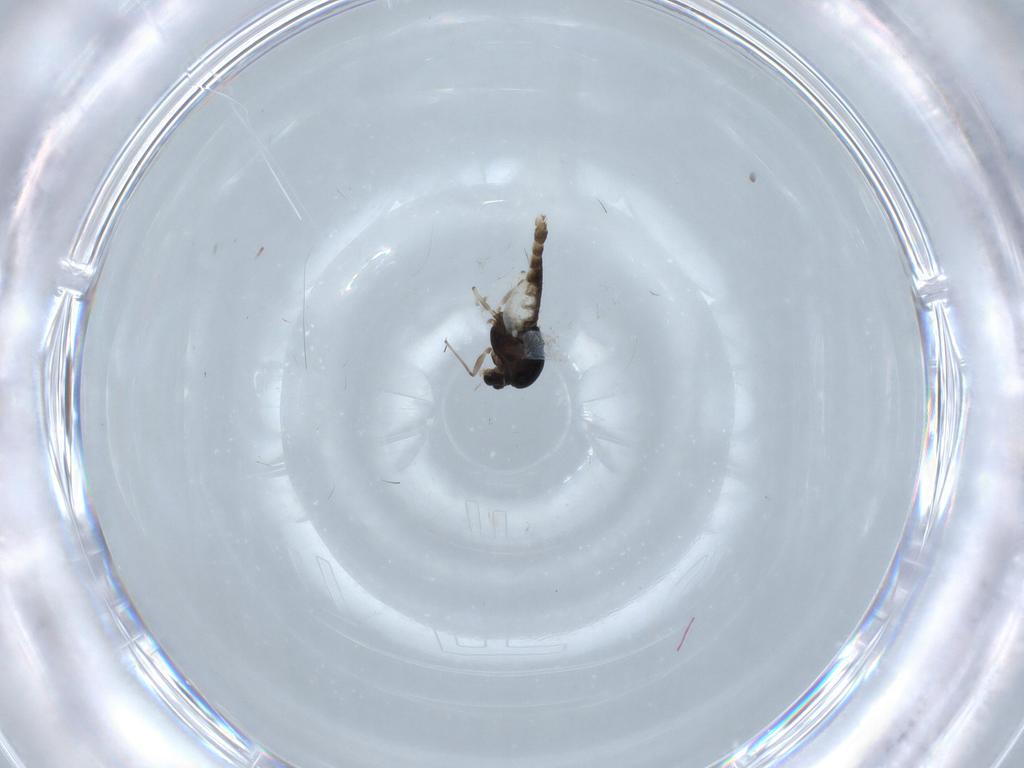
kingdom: Animalia
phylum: Arthropoda
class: Insecta
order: Diptera
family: Chironomidae
